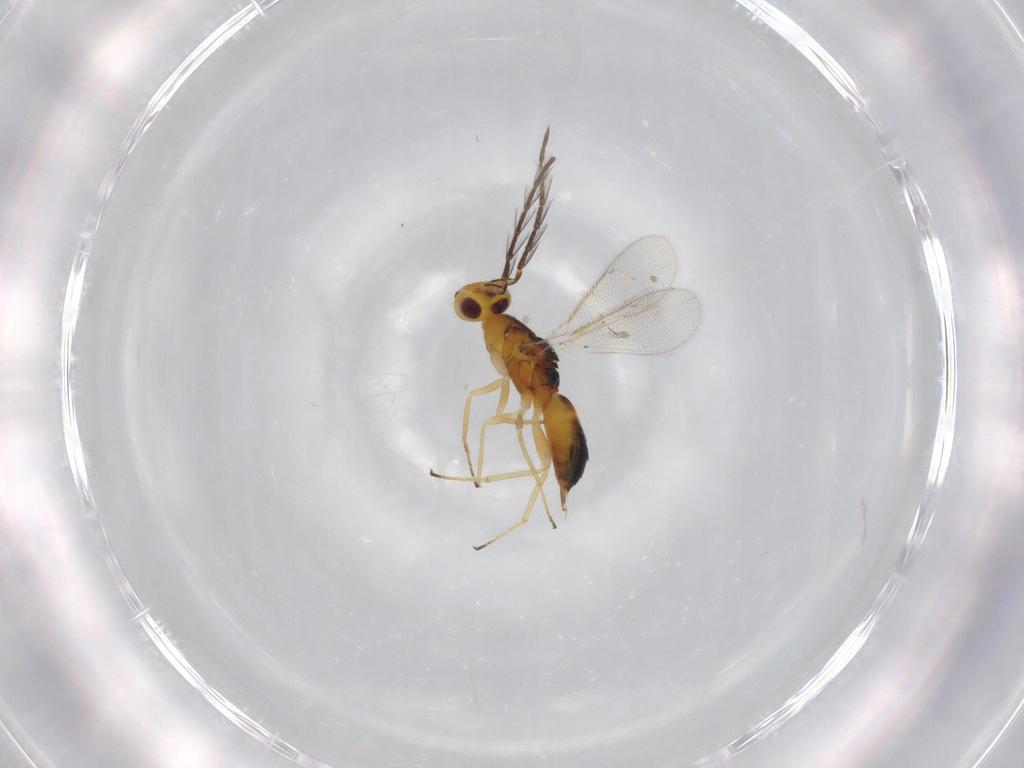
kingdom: Animalia
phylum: Arthropoda
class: Insecta
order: Hymenoptera
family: Eulophidae
